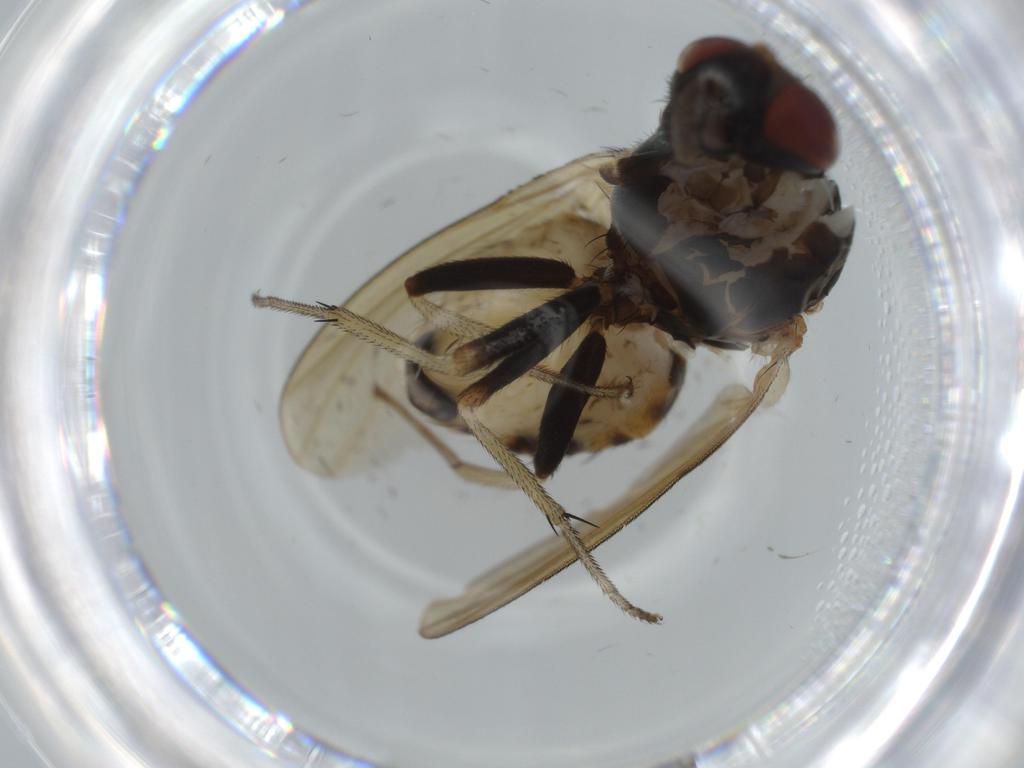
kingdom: Animalia
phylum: Arthropoda
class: Insecta
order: Diptera
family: Sciaridae
